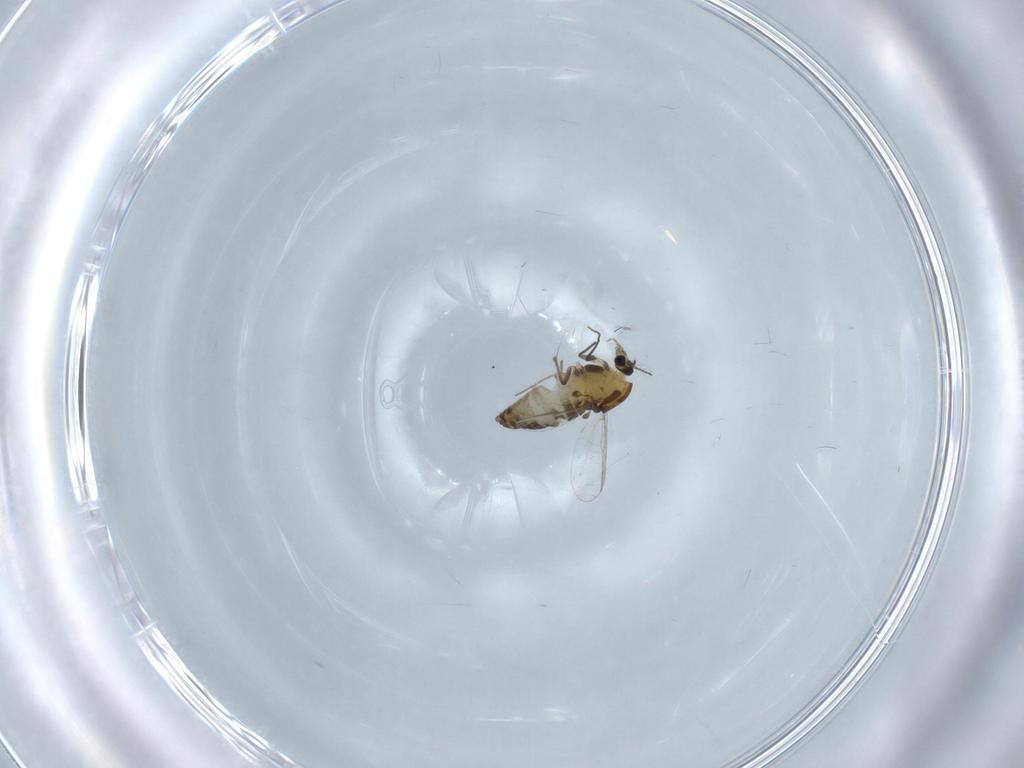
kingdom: Animalia
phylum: Arthropoda
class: Insecta
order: Diptera
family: Chironomidae
